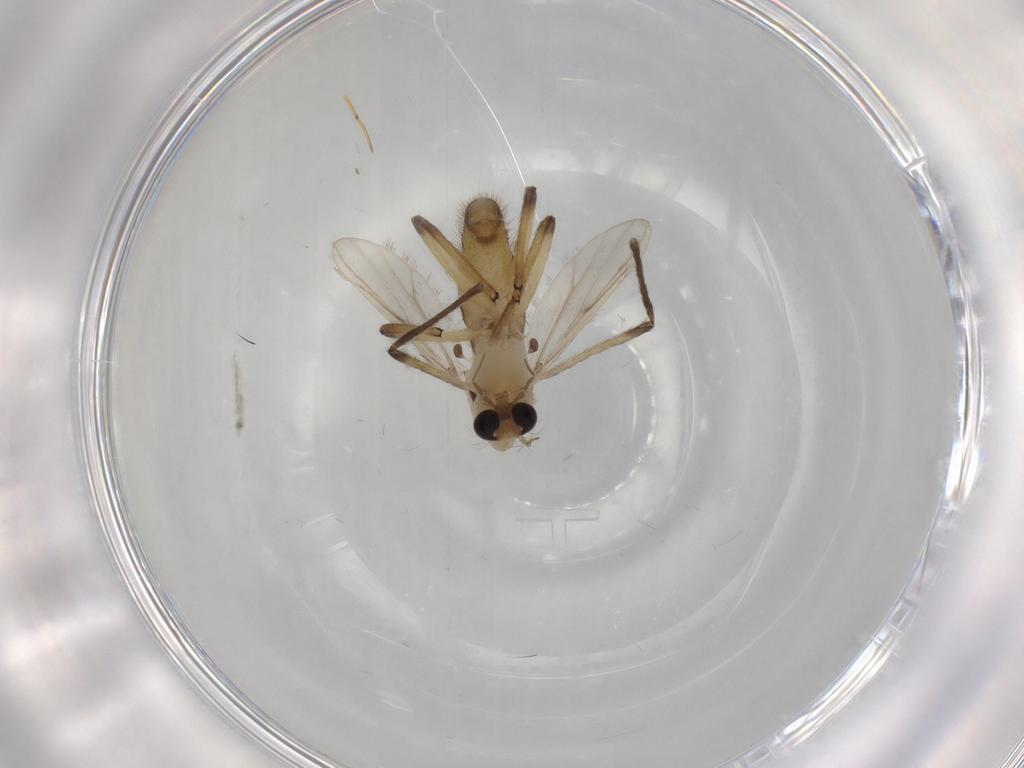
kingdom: Animalia
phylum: Arthropoda
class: Insecta
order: Diptera
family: Chironomidae
